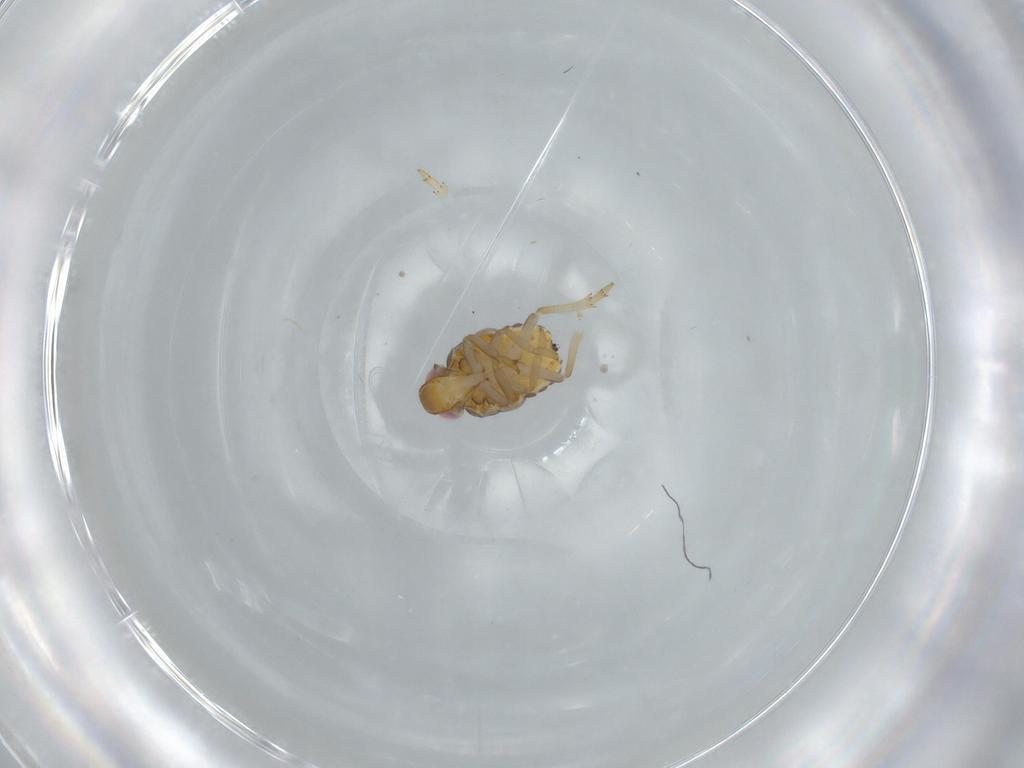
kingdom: Animalia
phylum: Arthropoda
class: Insecta
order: Hemiptera
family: Issidae
